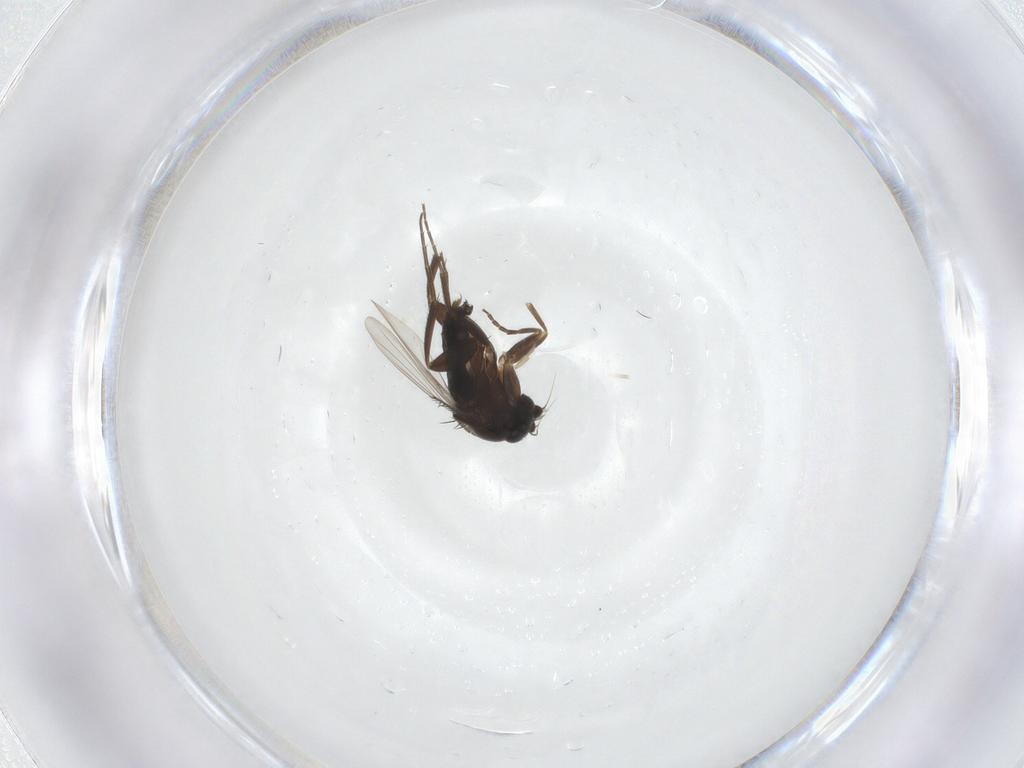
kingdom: Animalia
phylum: Arthropoda
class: Insecta
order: Diptera
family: Phoridae
